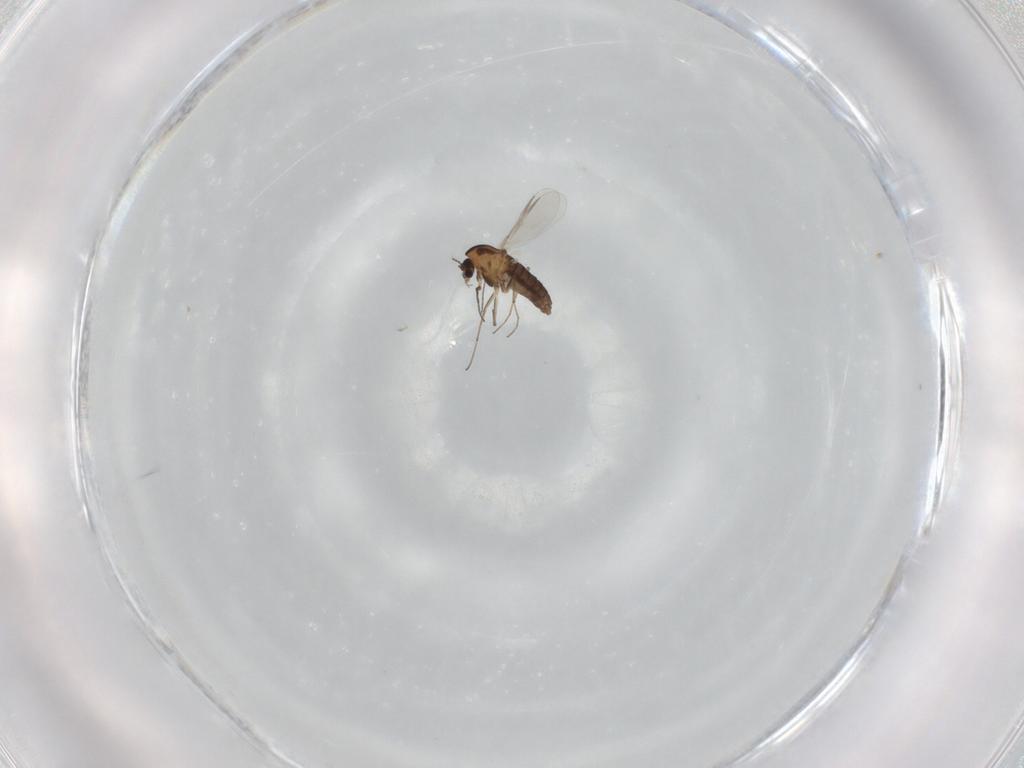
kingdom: Animalia
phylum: Arthropoda
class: Insecta
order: Diptera
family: Chironomidae
